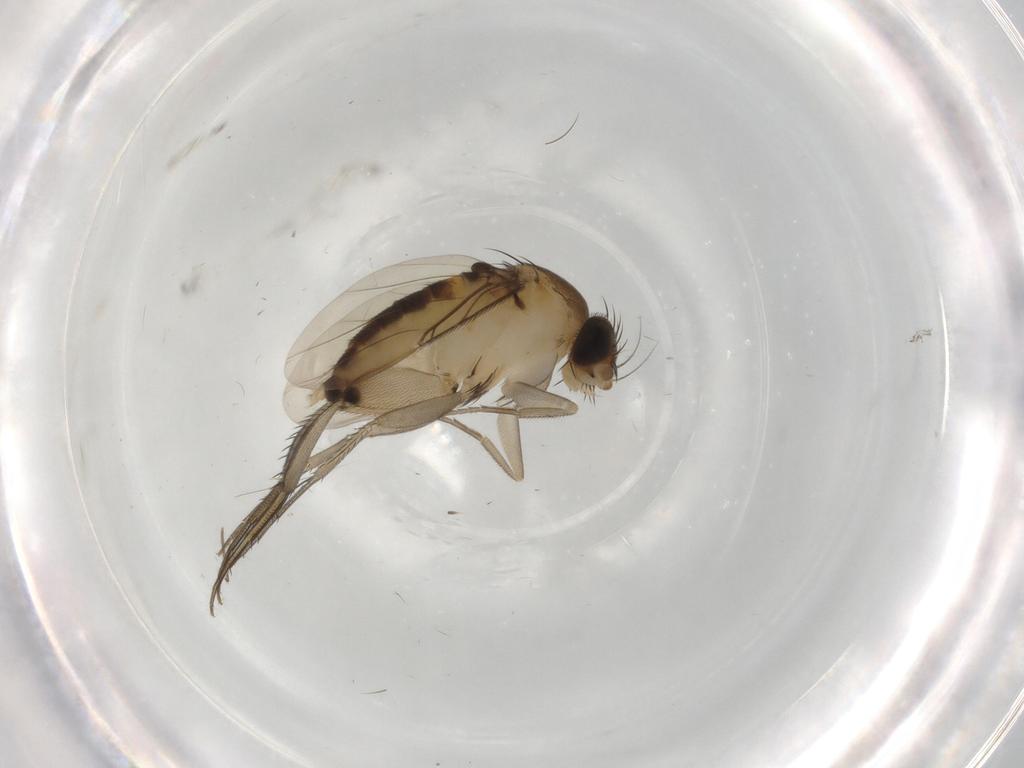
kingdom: Animalia
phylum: Arthropoda
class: Insecta
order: Diptera
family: Phoridae
